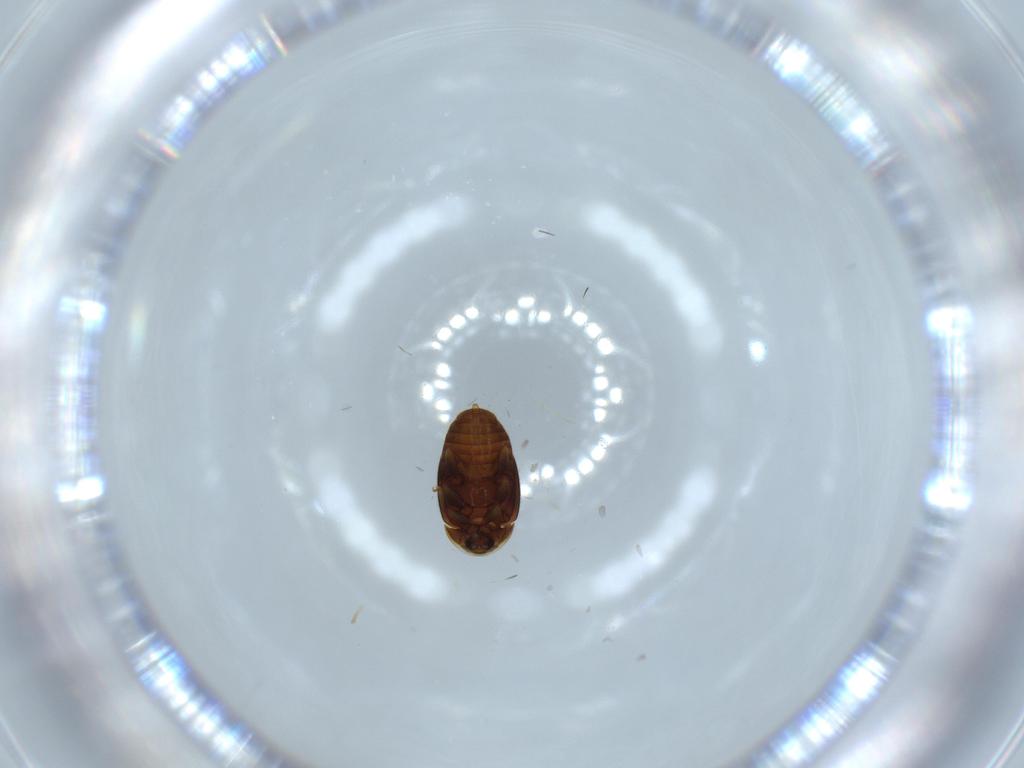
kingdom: Animalia
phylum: Arthropoda
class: Insecta
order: Coleoptera
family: Corylophidae
